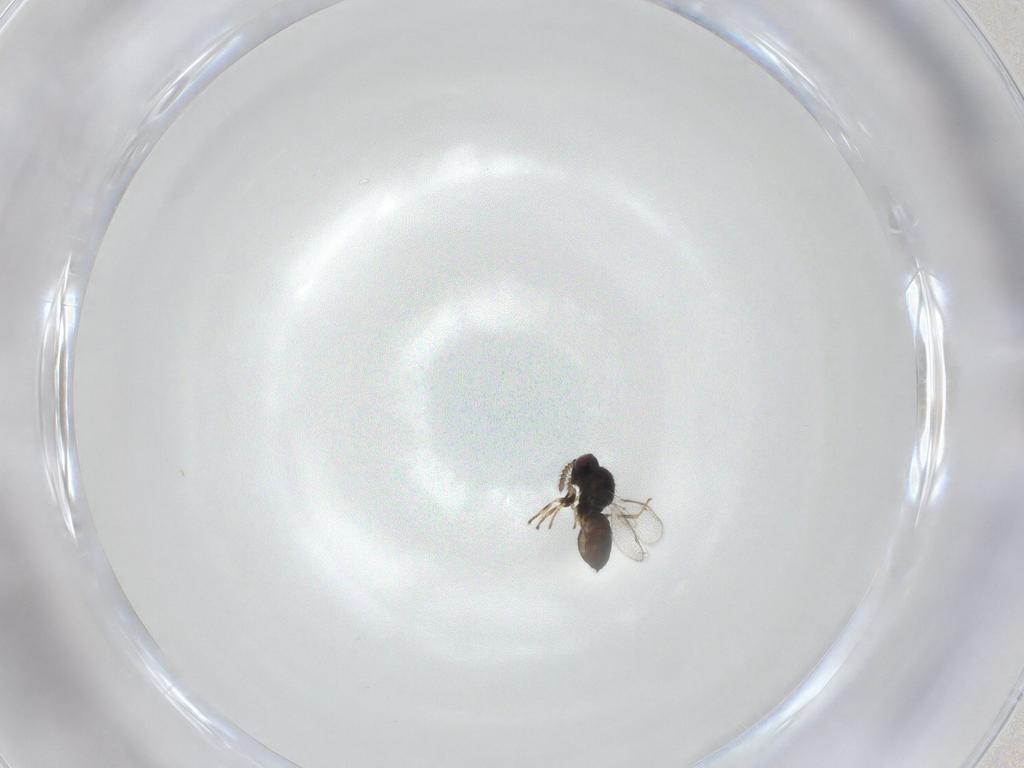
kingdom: Animalia
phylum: Arthropoda
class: Insecta
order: Hymenoptera
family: Pirenidae
